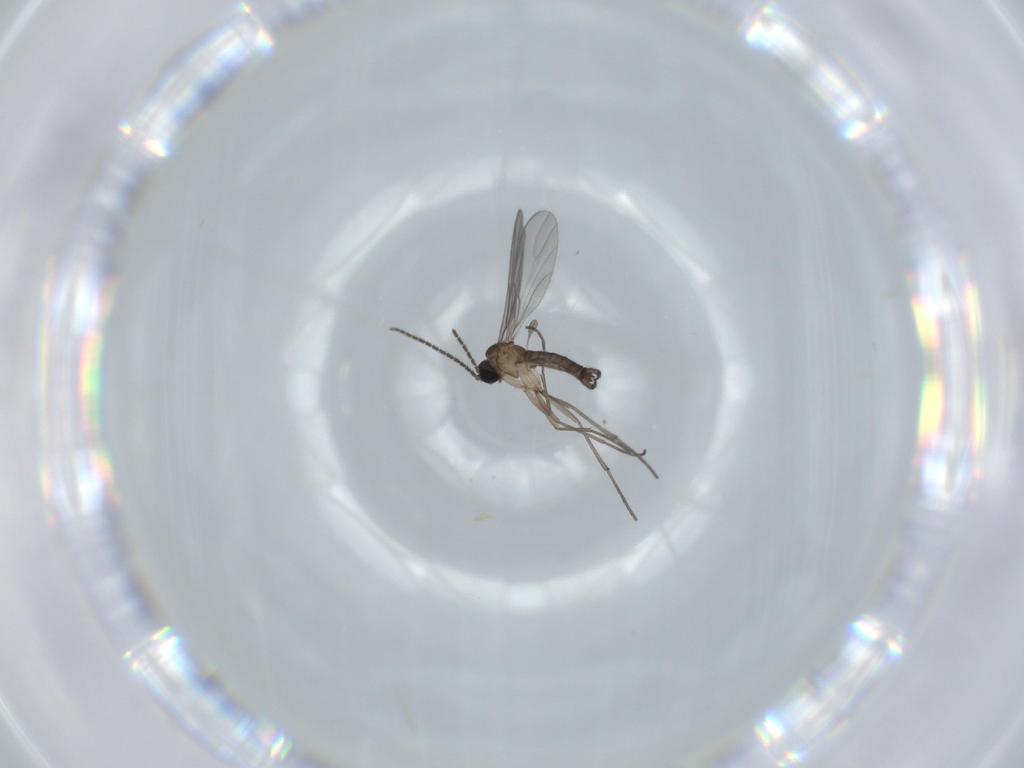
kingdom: Animalia
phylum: Arthropoda
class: Insecta
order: Diptera
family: Sciaridae
